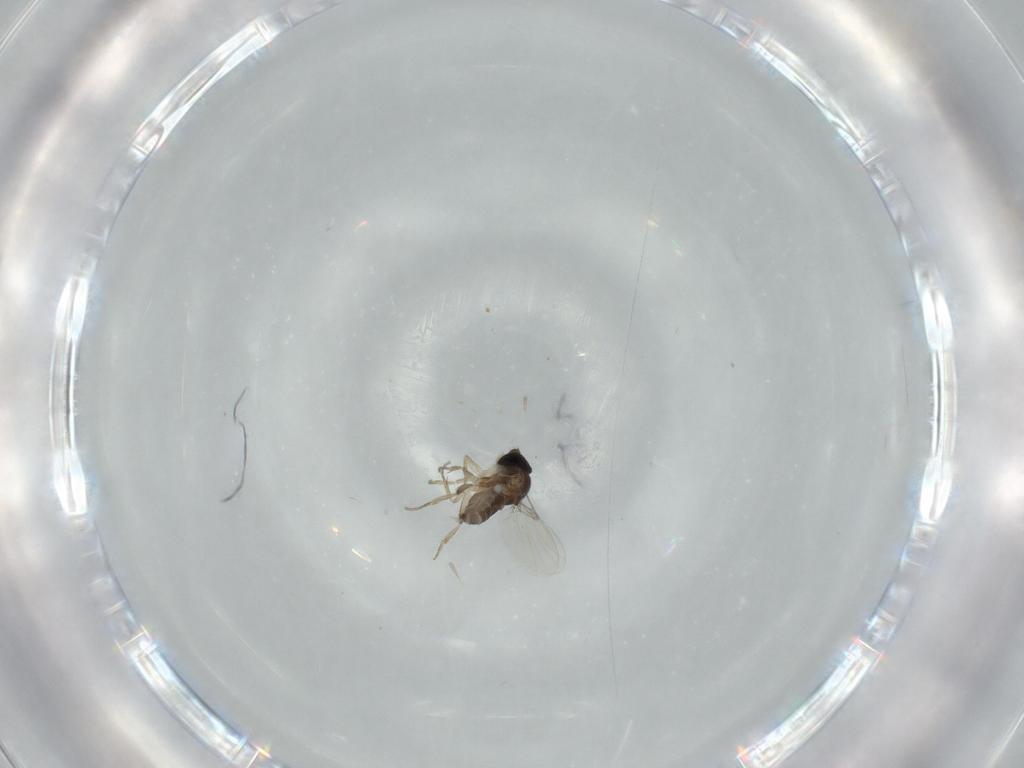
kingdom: Animalia
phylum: Arthropoda
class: Insecta
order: Diptera
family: Phoridae
